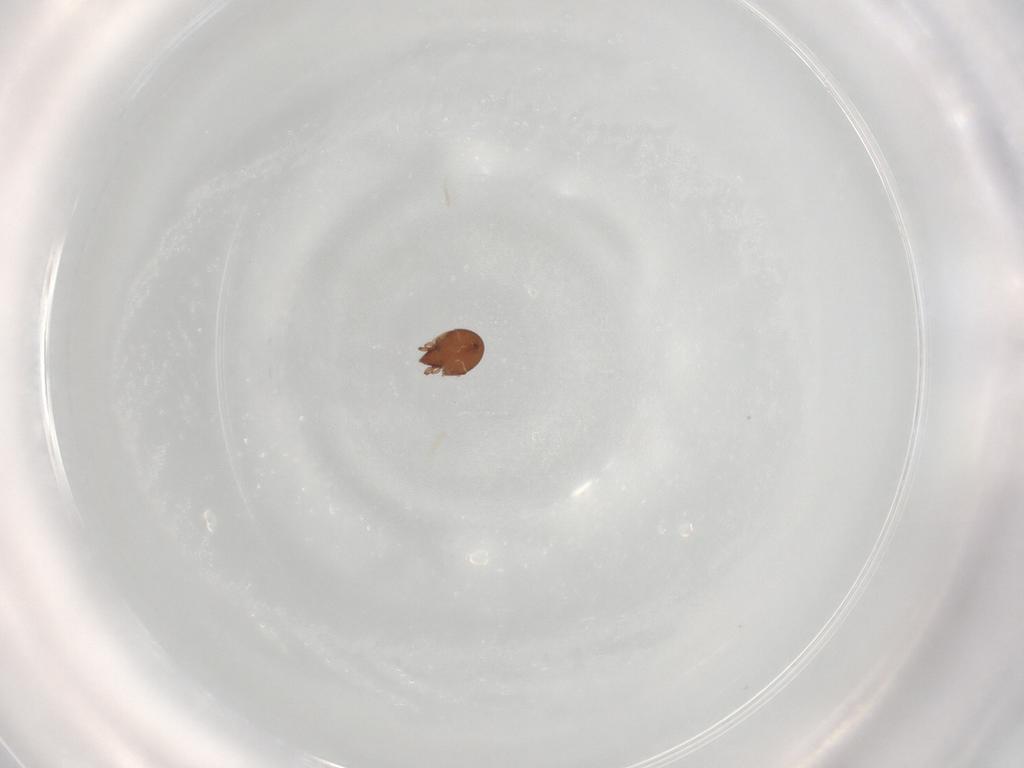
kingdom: Animalia
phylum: Arthropoda
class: Arachnida
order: Sarcoptiformes
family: Scheloribatidae
